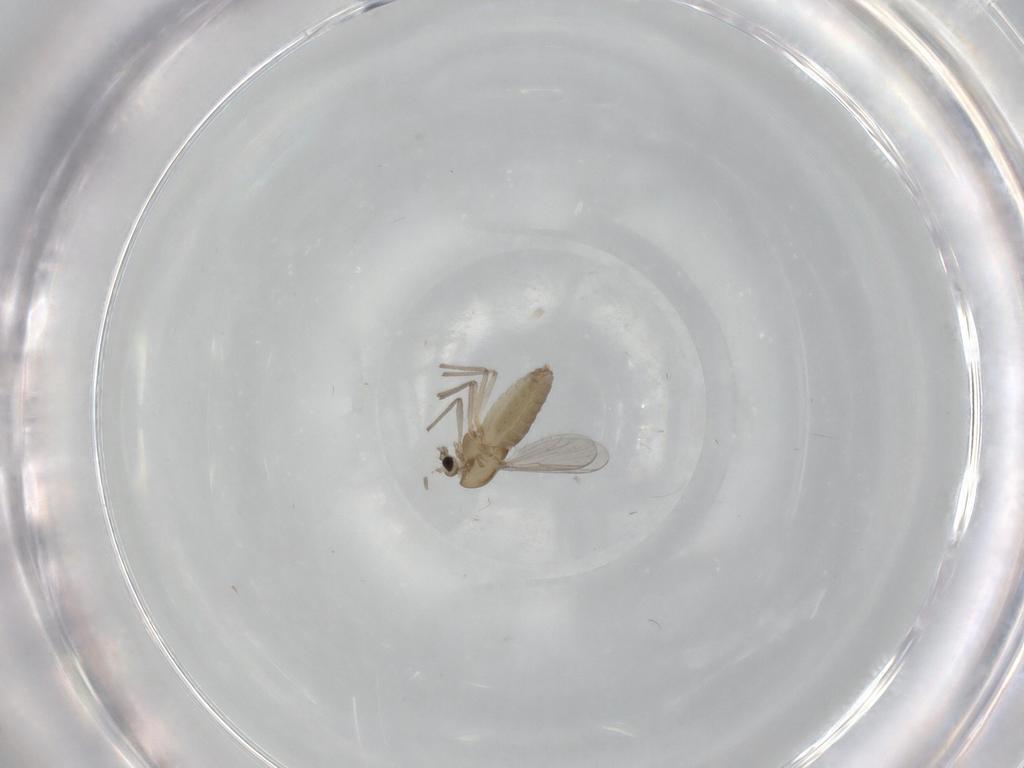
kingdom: Animalia
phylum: Arthropoda
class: Insecta
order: Diptera
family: Chironomidae
